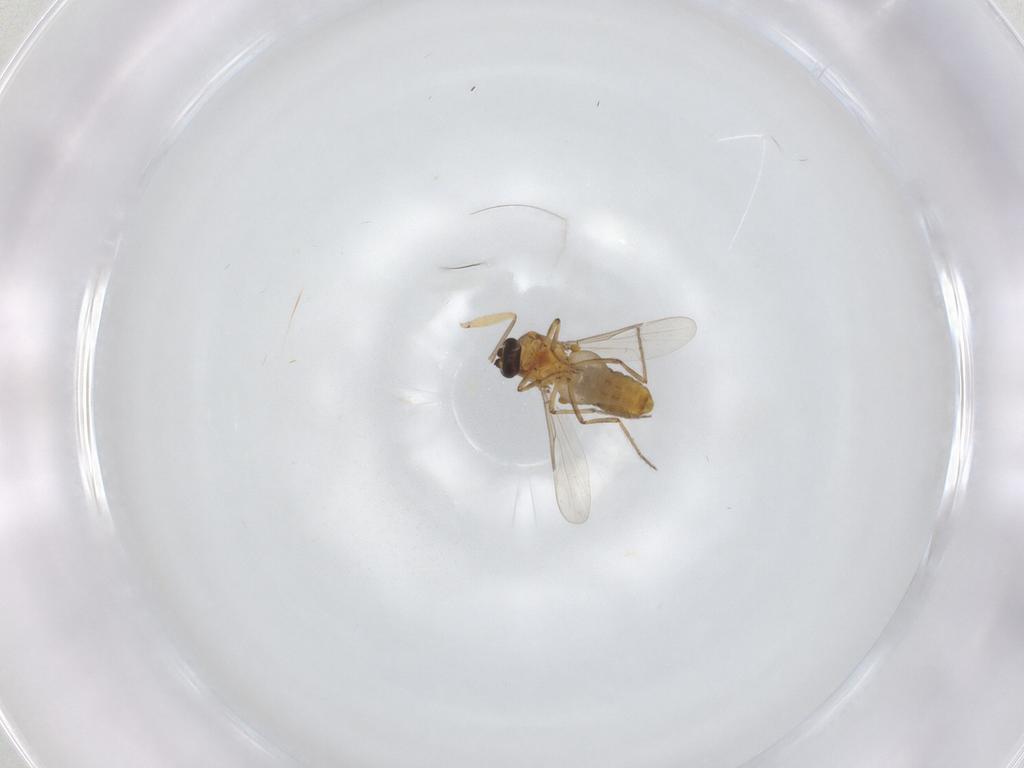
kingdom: Animalia
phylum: Arthropoda
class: Insecta
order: Diptera
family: Ceratopogonidae
